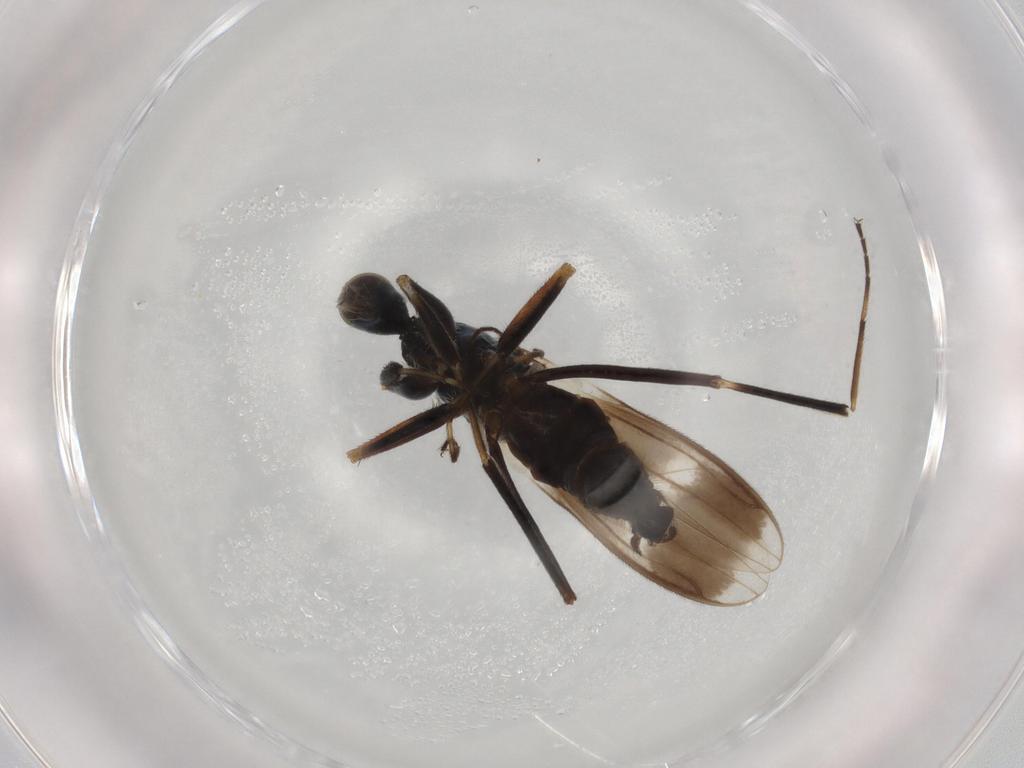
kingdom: Animalia
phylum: Arthropoda
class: Insecta
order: Diptera
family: Hybotidae
